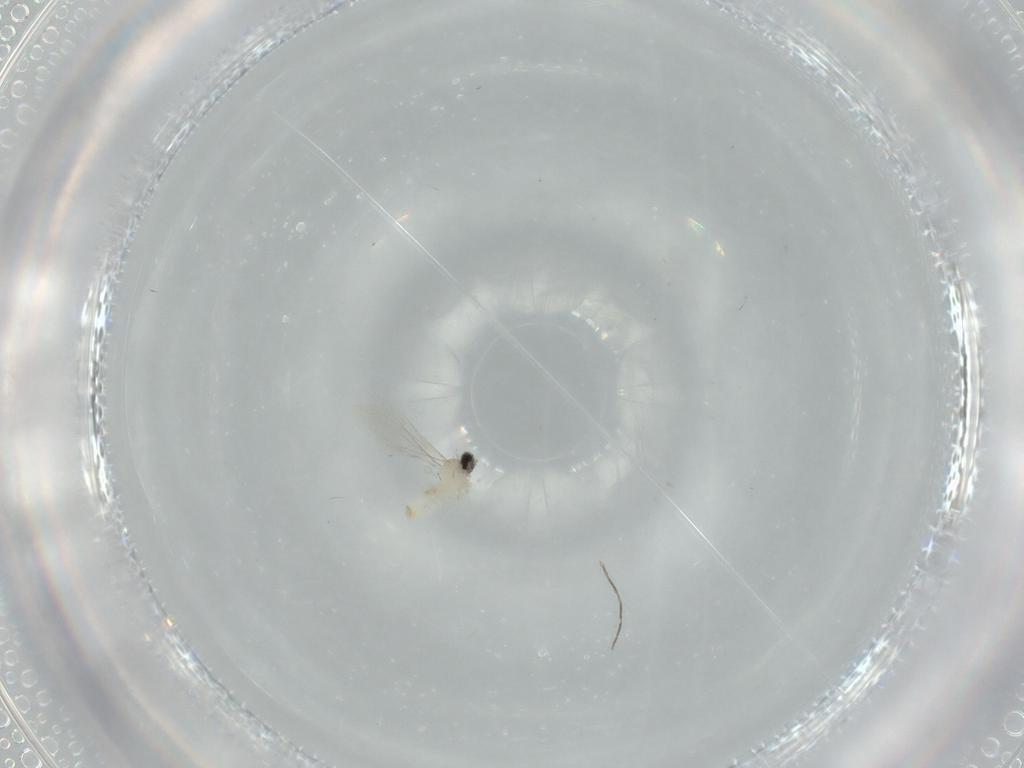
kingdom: Animalia
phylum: Arthropoda
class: Insecta
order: Diptera
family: Cecidomyiidae
